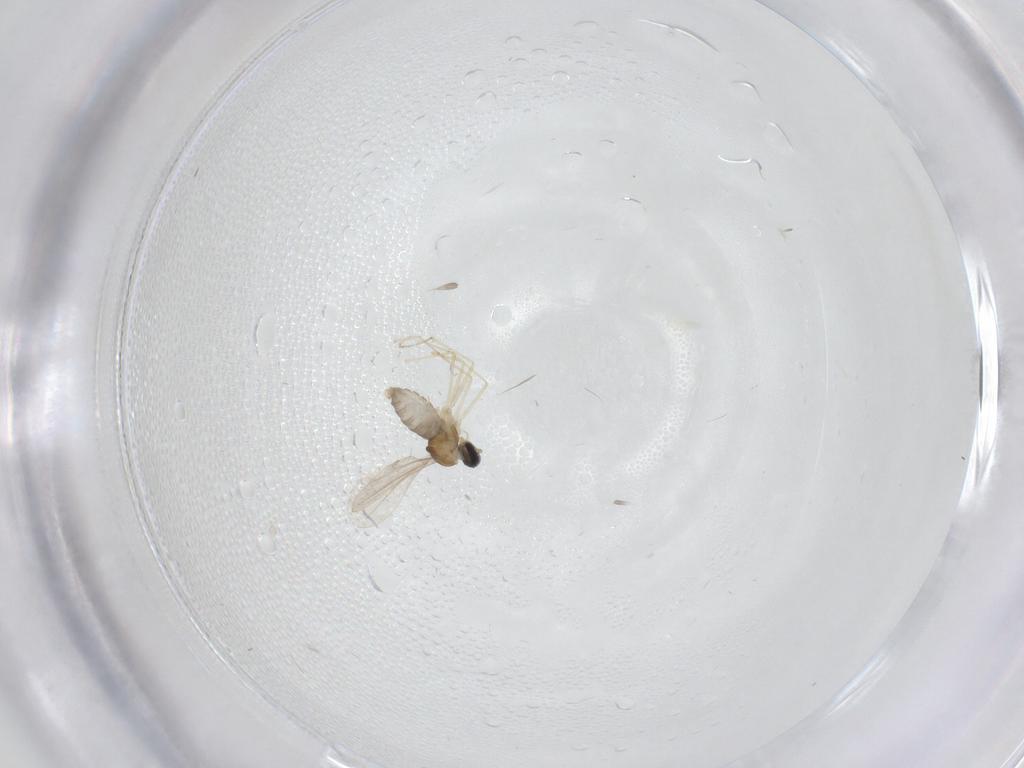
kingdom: Animalia
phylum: Arthropoda
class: Insecta
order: Diptera
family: Cecidomyiidae
